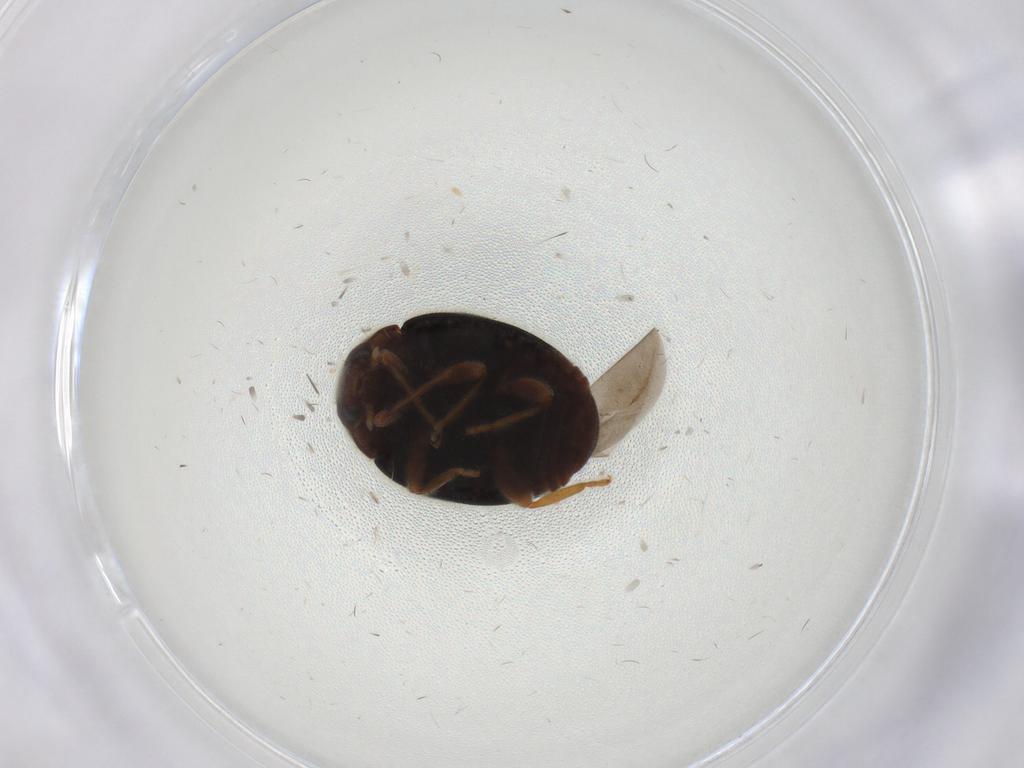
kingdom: Animalia
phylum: Arthropoda
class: Insecta
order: Coleoptera
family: Coccinellidae
